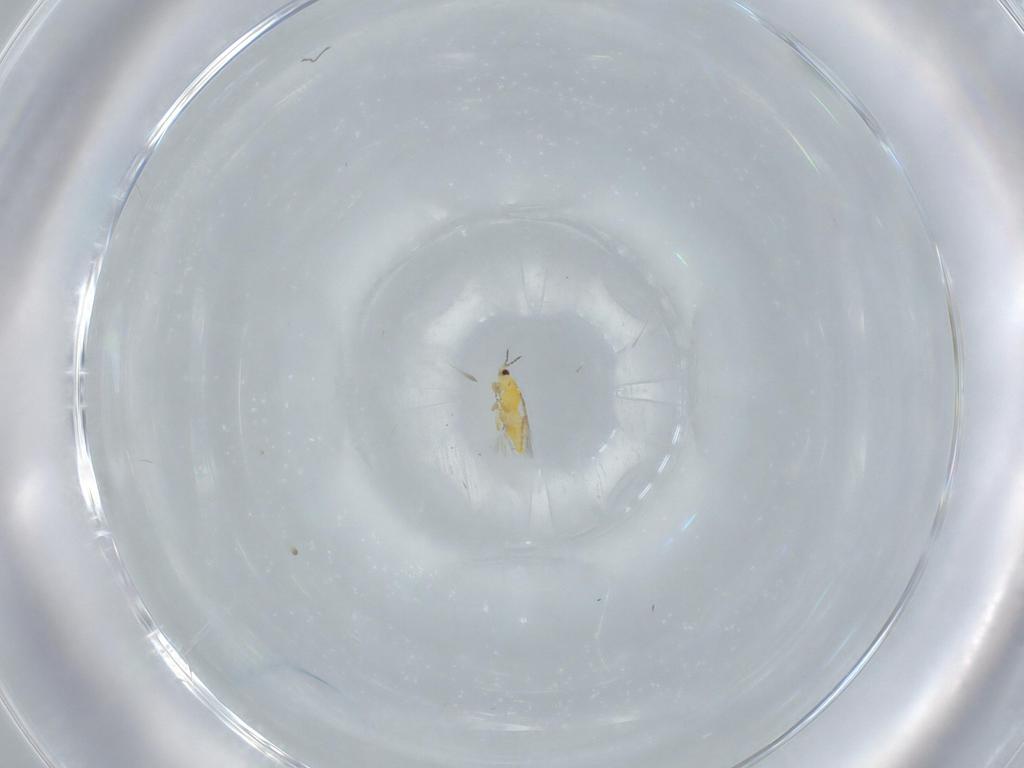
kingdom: Animalia
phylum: Arthropoda
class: Insecta
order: Thysanoptera
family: Thripidae
